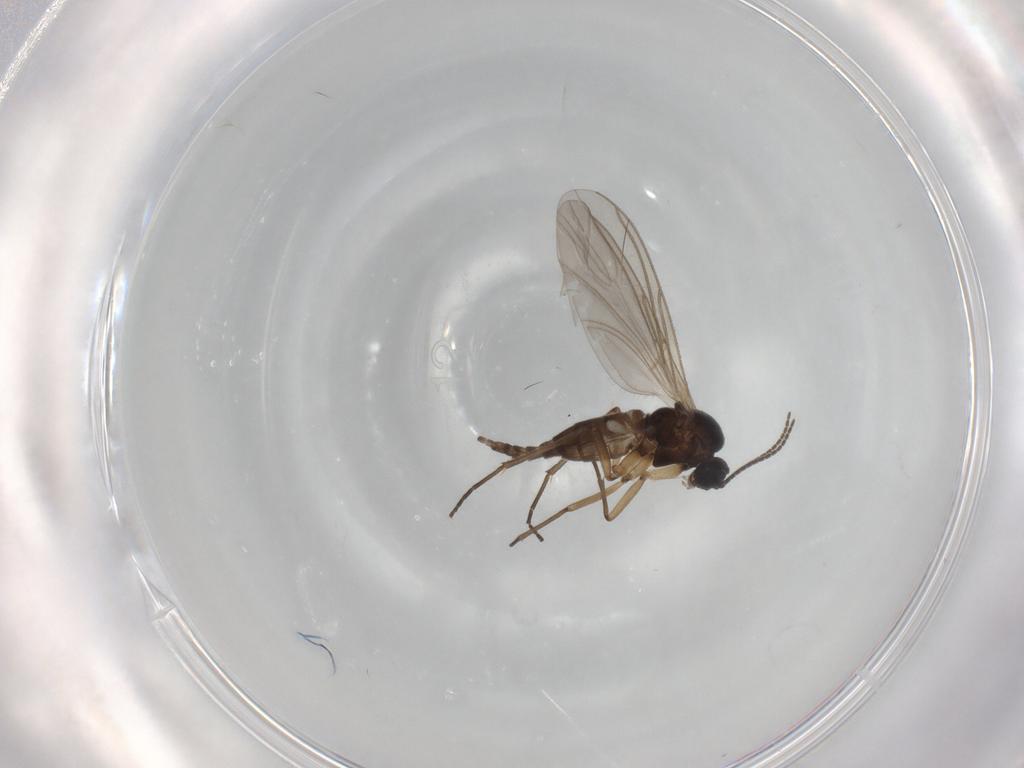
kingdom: Animalia
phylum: Arthropoda
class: Insecta
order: Diptera
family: Sciaridae
